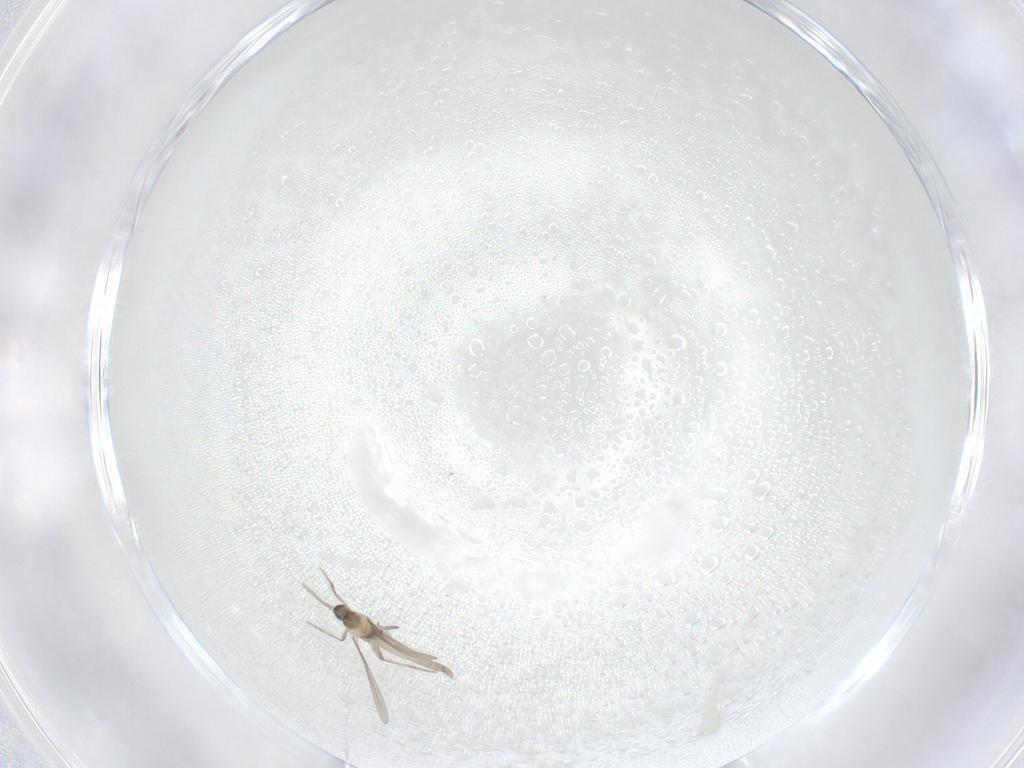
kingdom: Animalia
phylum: Arthropoda
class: Insecta
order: Diptera
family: Cecidomyiidae
